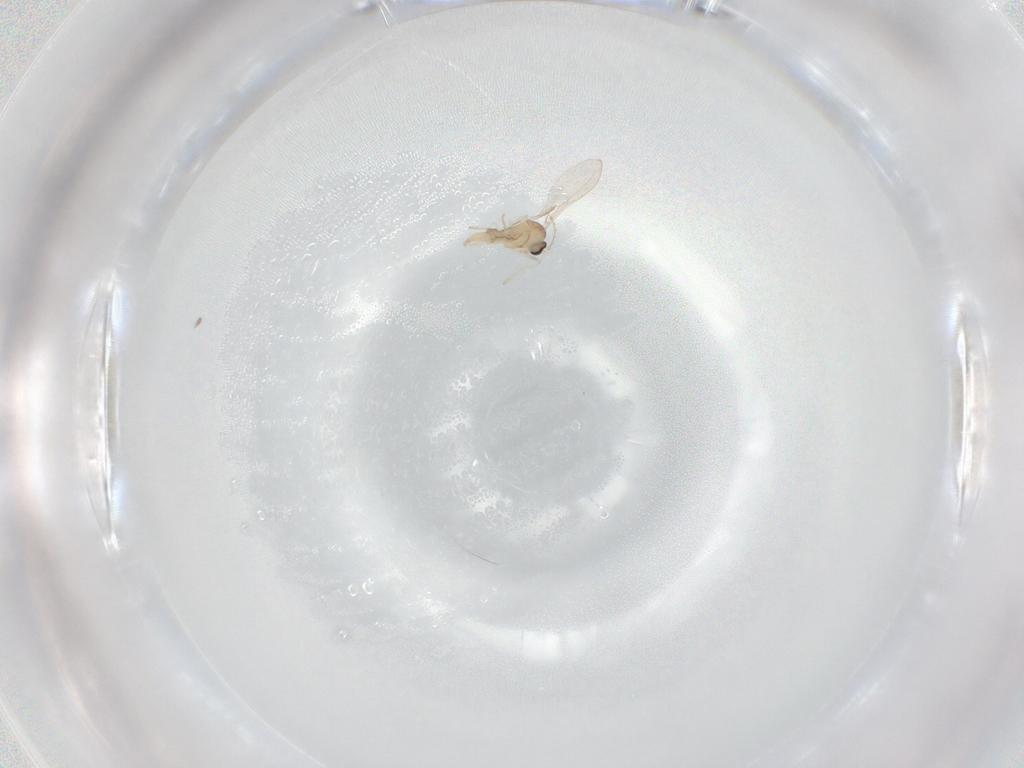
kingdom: Animalia
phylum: Arthropoda
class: Insecta
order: Diptera
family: Cecidomyiidae
